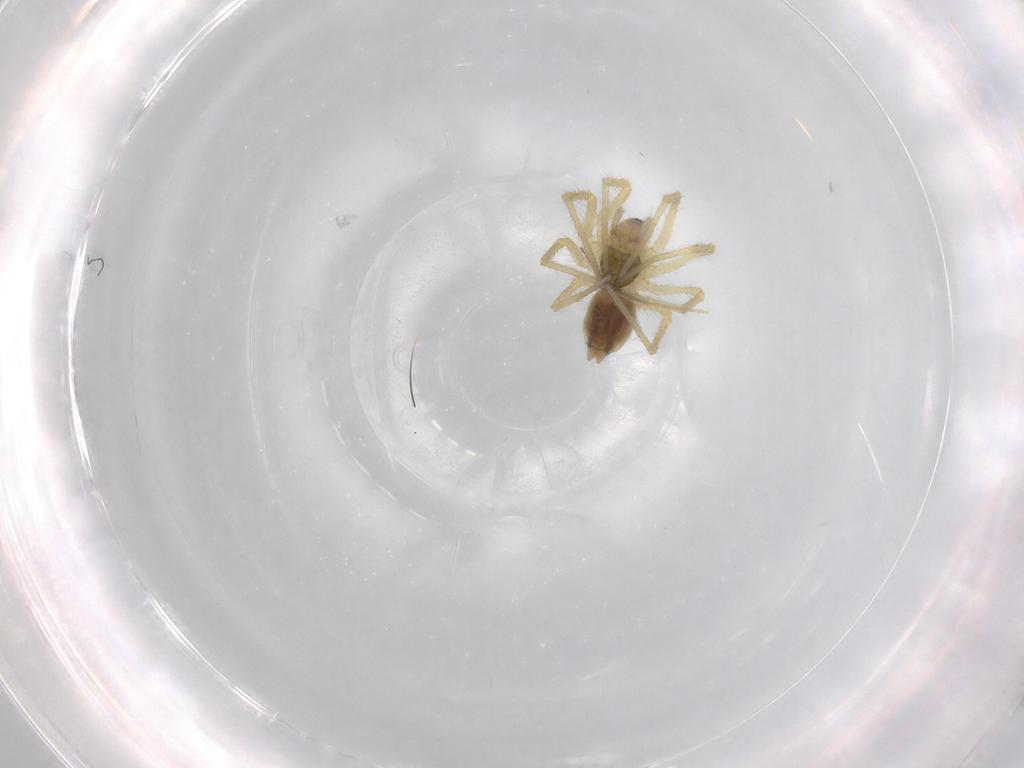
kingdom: Animalia
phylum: Arthropoda
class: Arachnida
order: Araneae
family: Linyphiidae
